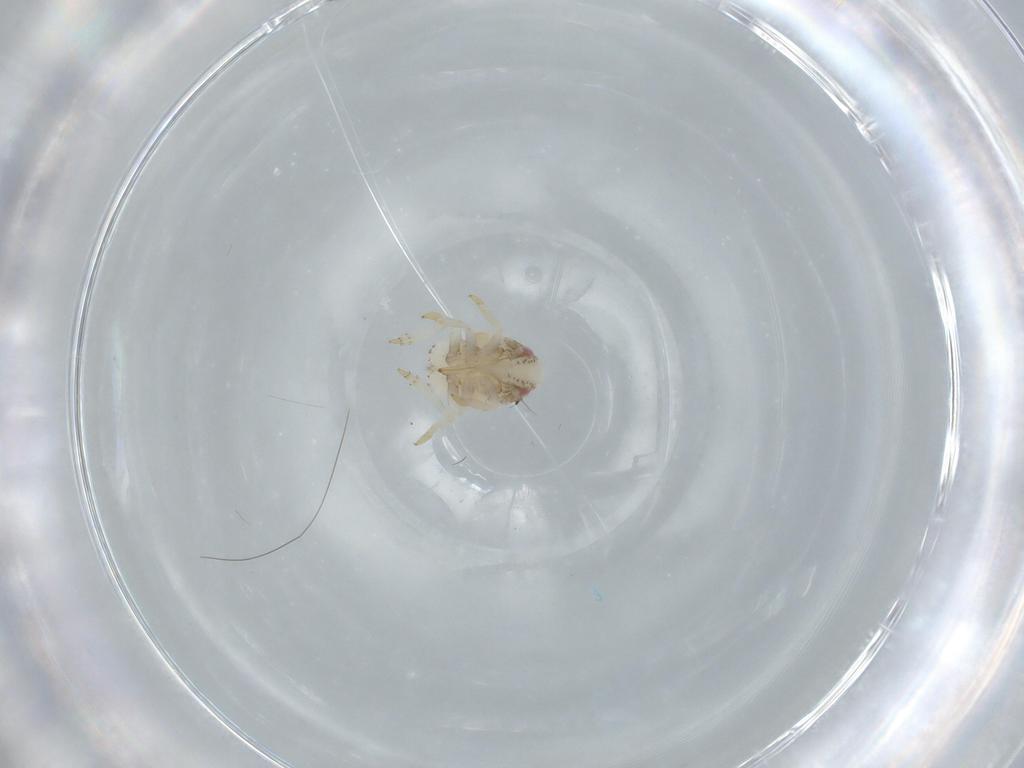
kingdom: Animalia
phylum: Arthropoda
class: Insecta
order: Hemiptera
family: Acanaloniidae
